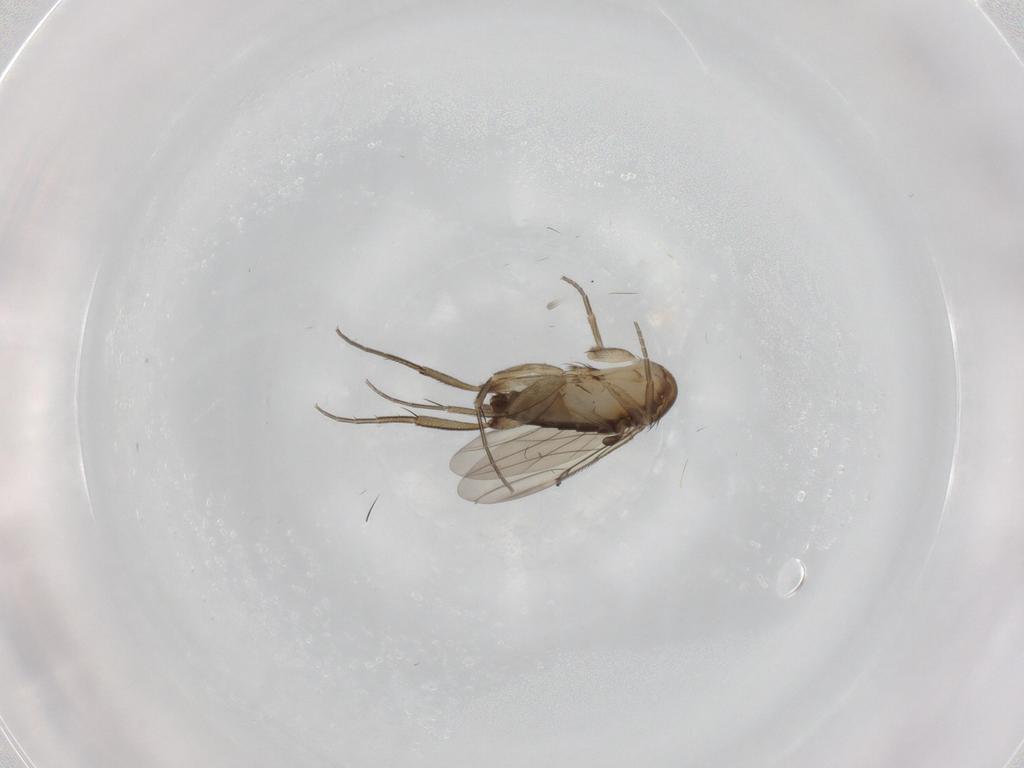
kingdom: Animalia
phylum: Arthropoda
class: Insecta
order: Diptera
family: Phoridae
